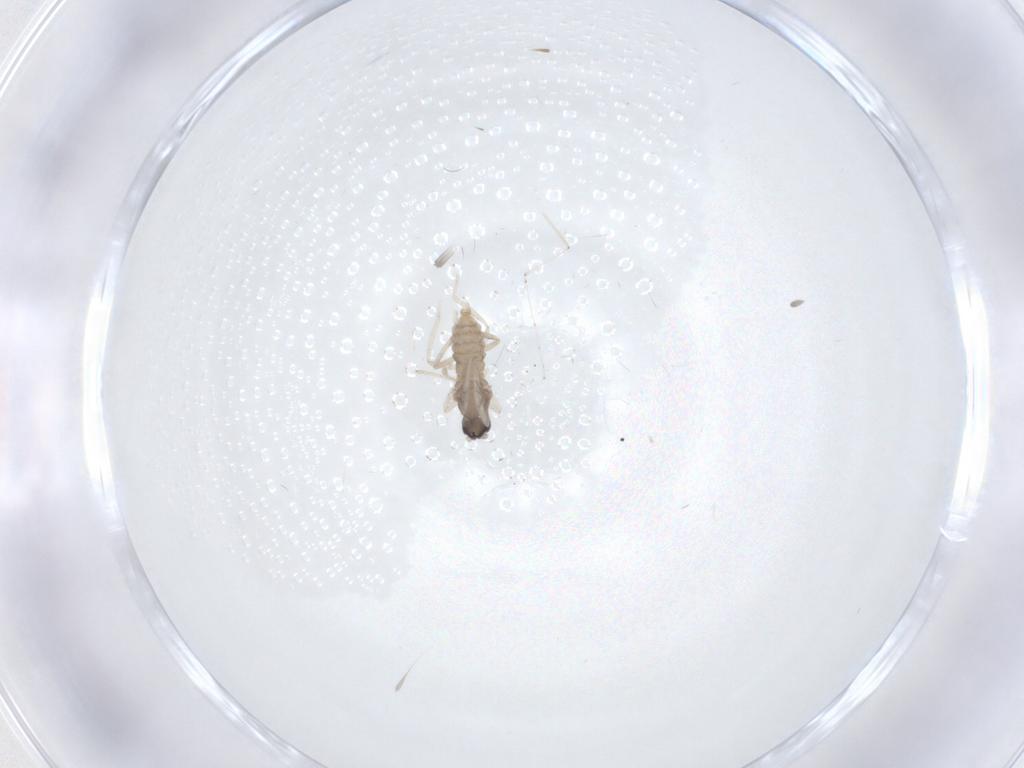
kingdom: Animalia
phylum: Arthropoda
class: Insecta
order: Diptera
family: Cecidomyiidae
